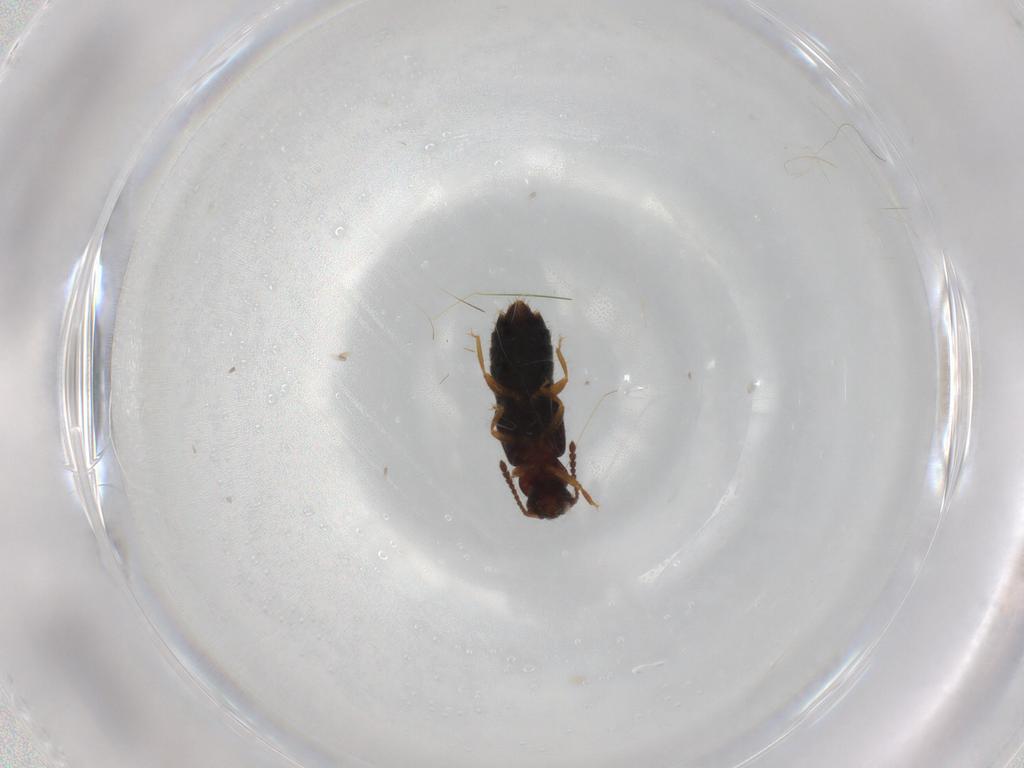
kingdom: Animalia
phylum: Arthropoda
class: Insecta
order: Coleoptera
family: Staphylinidae
